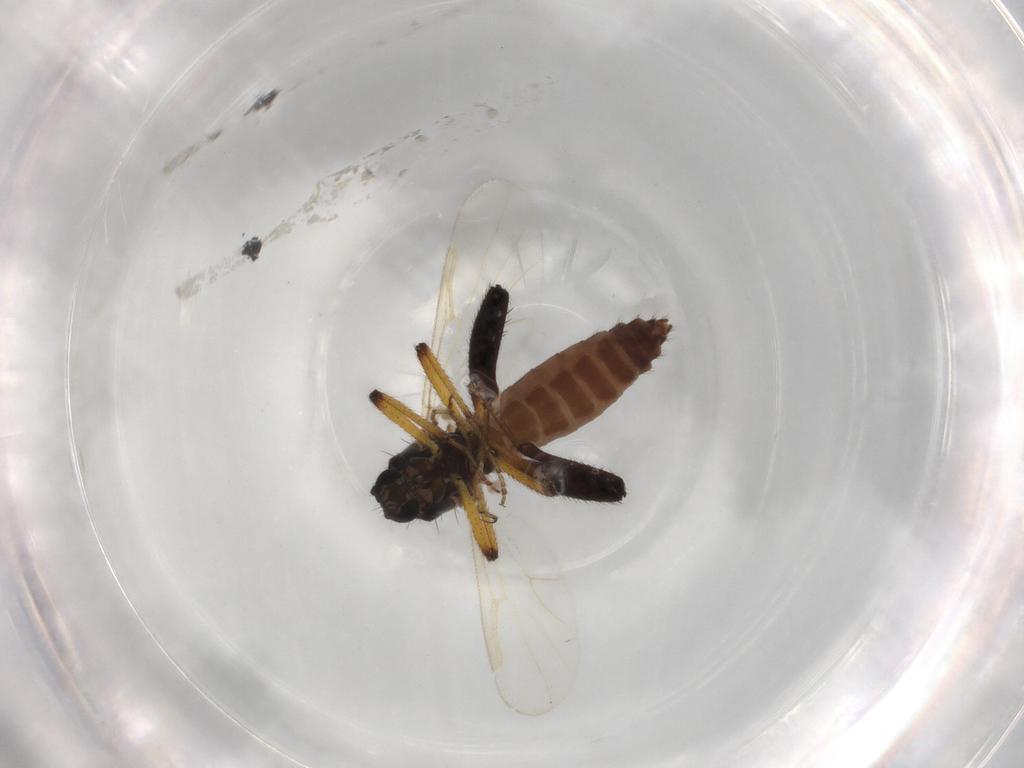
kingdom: Animalia
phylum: Arthropoda
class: Insecta
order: Diptera
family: Ceratopogonidae
